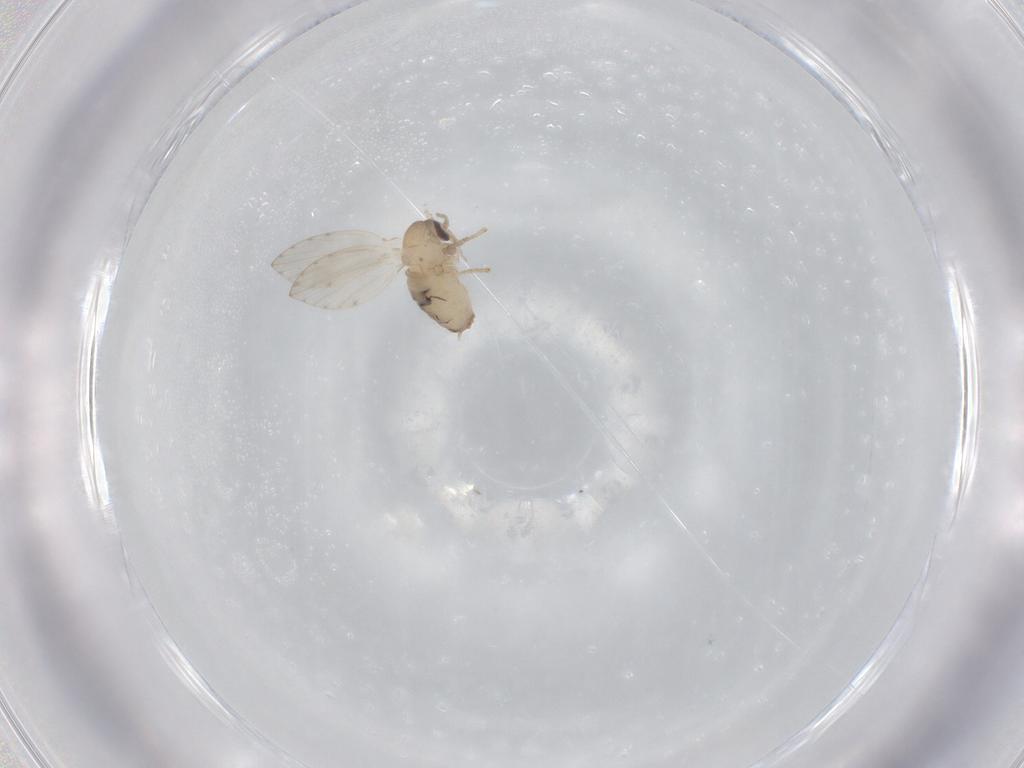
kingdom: Animalia
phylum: Arthropoda
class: Insecta
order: Diptera
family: Psychodidae
